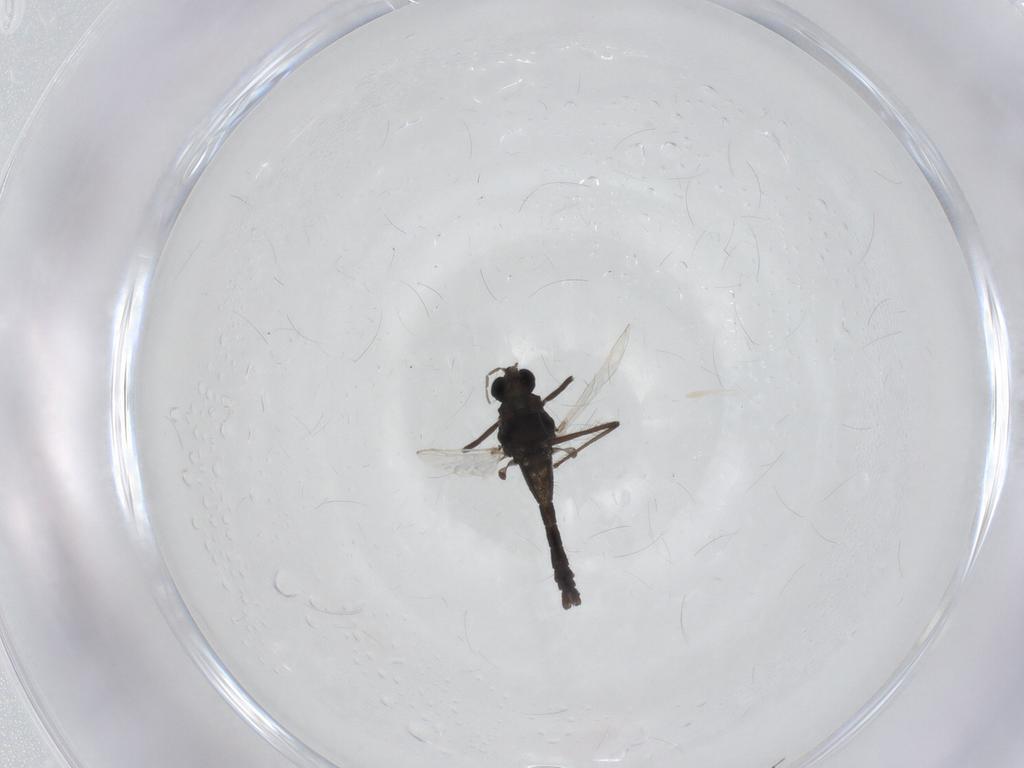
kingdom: Animalia
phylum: Arthropoda
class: Insecta
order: Diptera
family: Chironomidae
